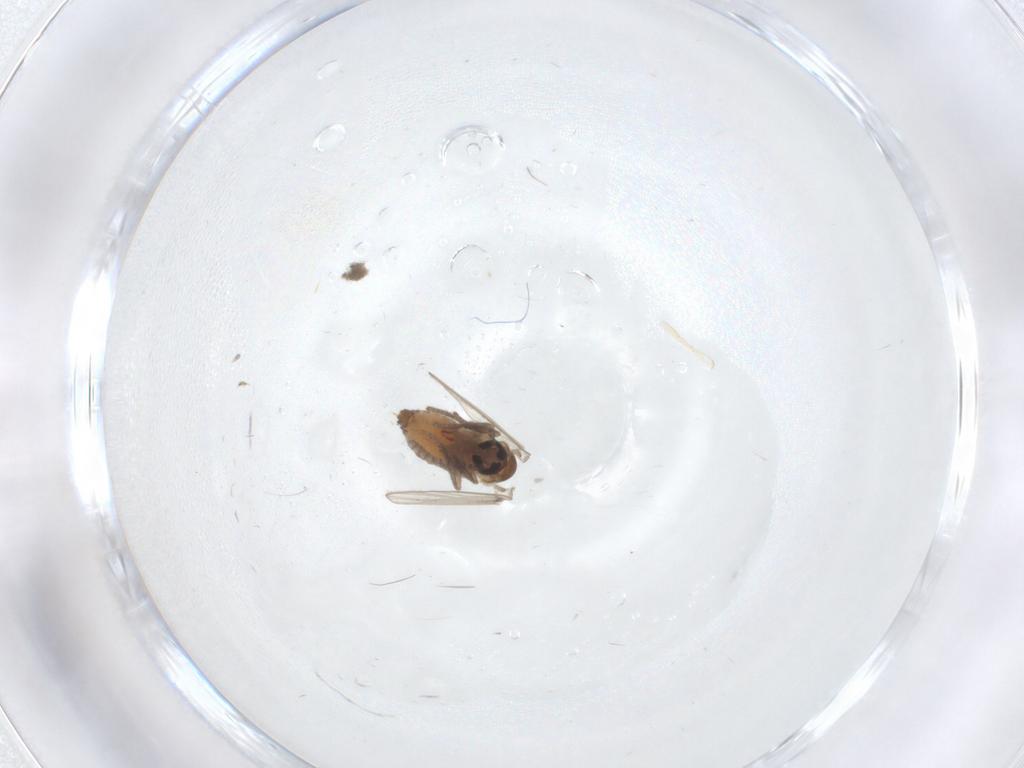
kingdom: Animalia
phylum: Arthropoda
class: Insecta
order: Diptera
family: Psychodidae
